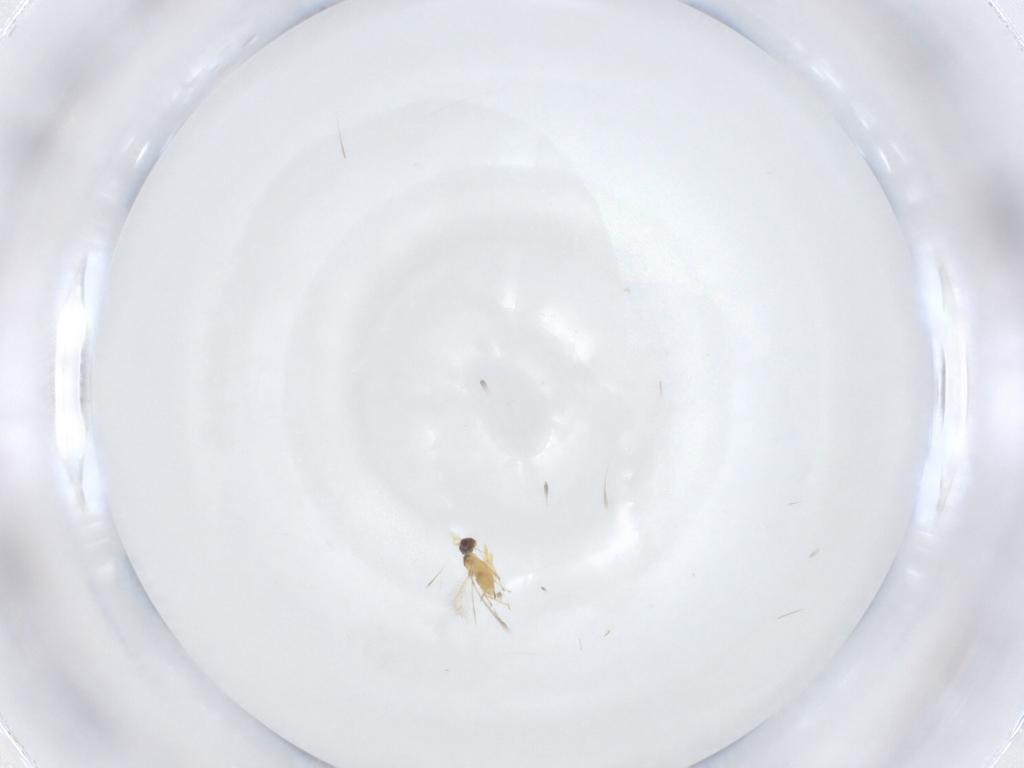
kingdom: Animalia
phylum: Arthropoda
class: Insecta
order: Hymenoptera
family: Mymaridae
